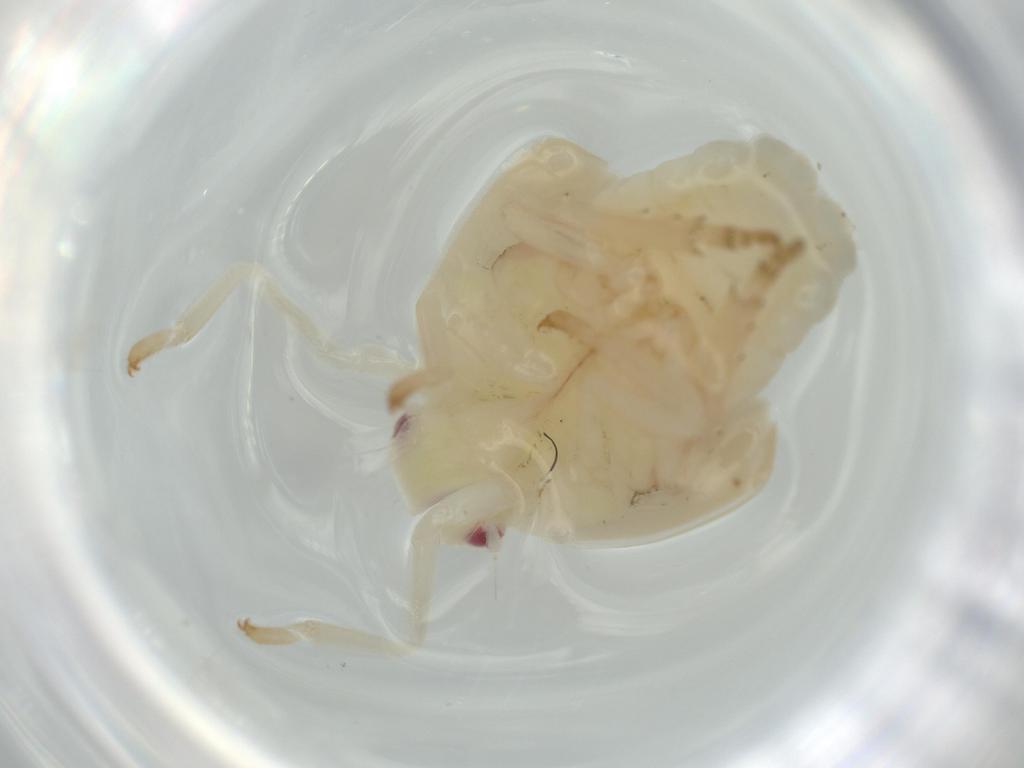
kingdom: Animalia
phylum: Arthropoda
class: Insecta
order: Hemiptera
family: Flatidae
